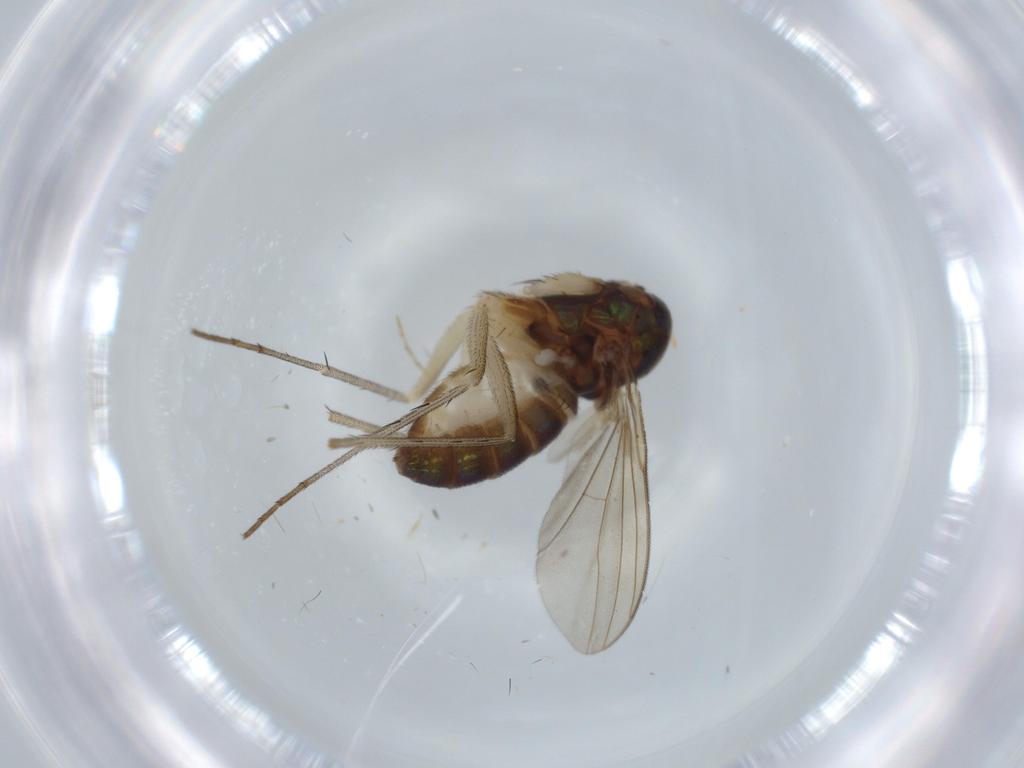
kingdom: Animalia
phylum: Arthropoda
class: Insecta
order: Diptera
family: Dolichopodidae
